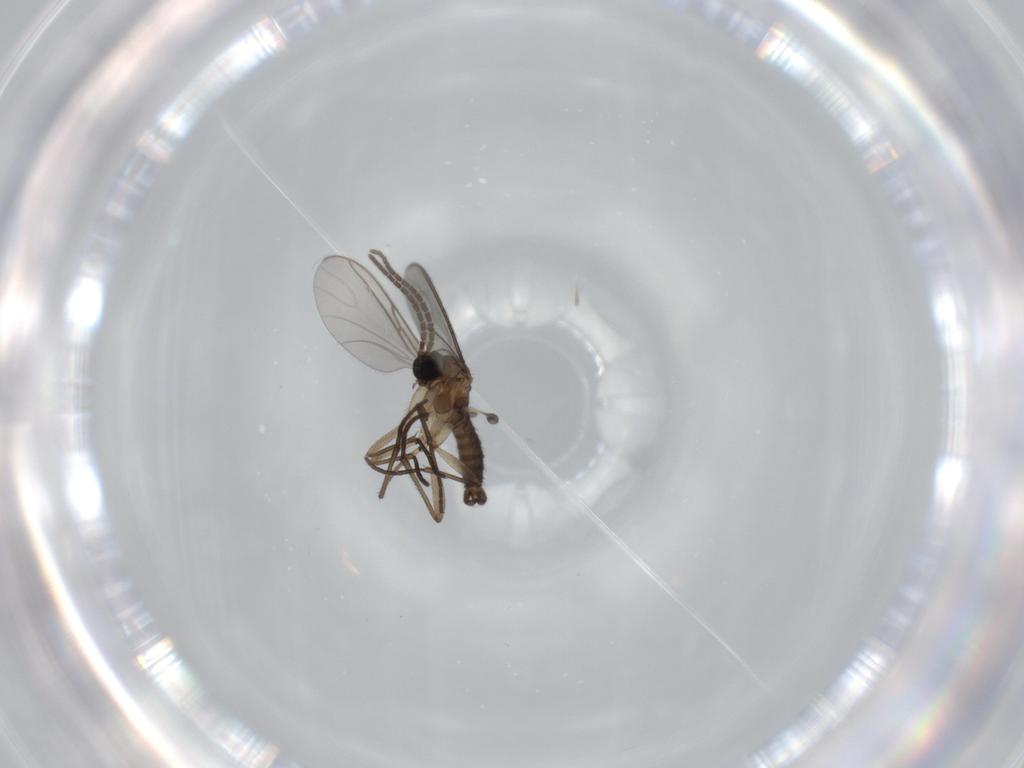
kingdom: Animalia
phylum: Arthropoda
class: Insecta
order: Diptera
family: Sciaridae
